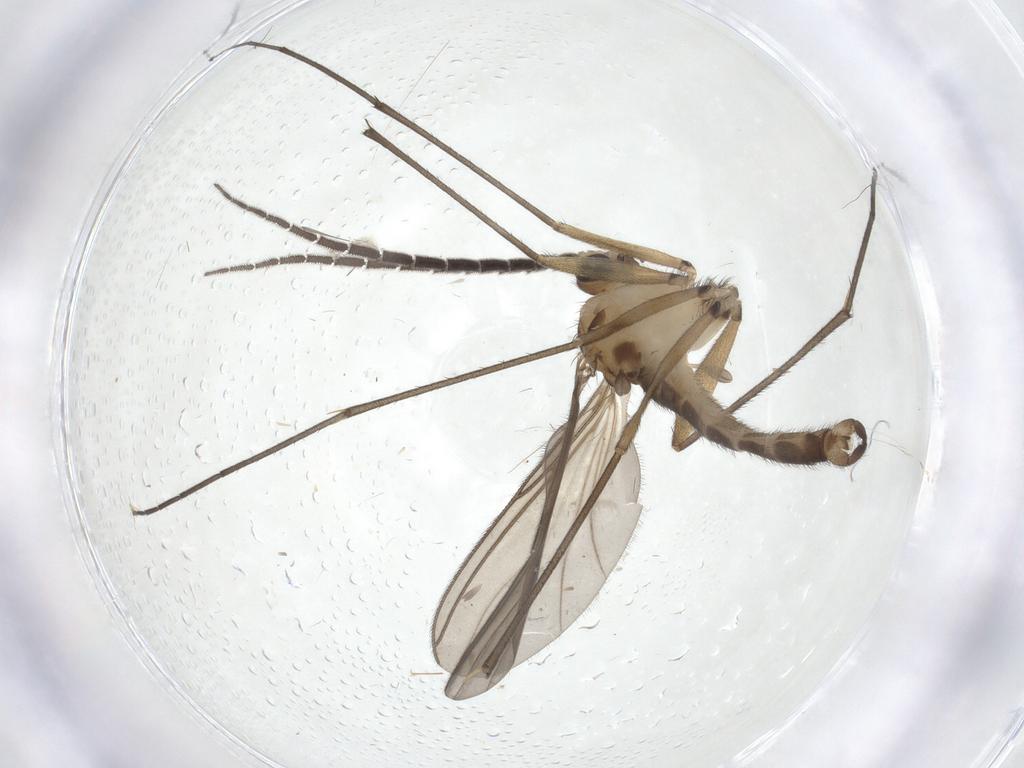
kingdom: Animalia
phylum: Arthropoda
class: Insecta
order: Diptera
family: Sciaridae
